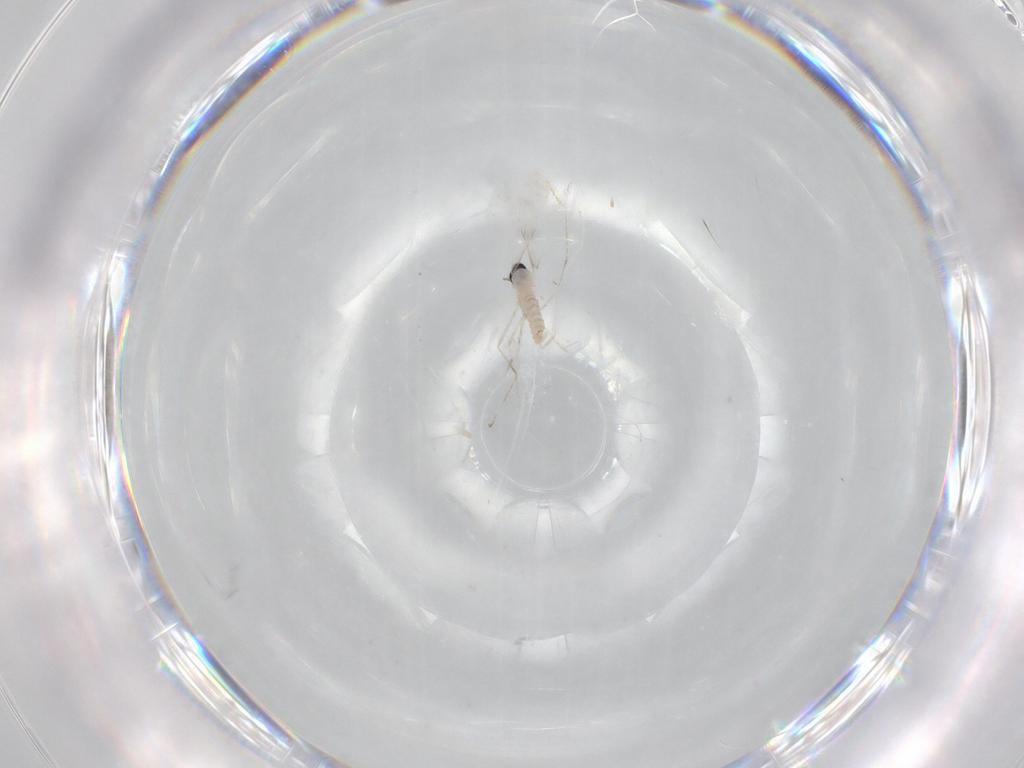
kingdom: Animalia
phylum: Arthropoda
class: Insecta
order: Diptera
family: Cecidomyiidae
